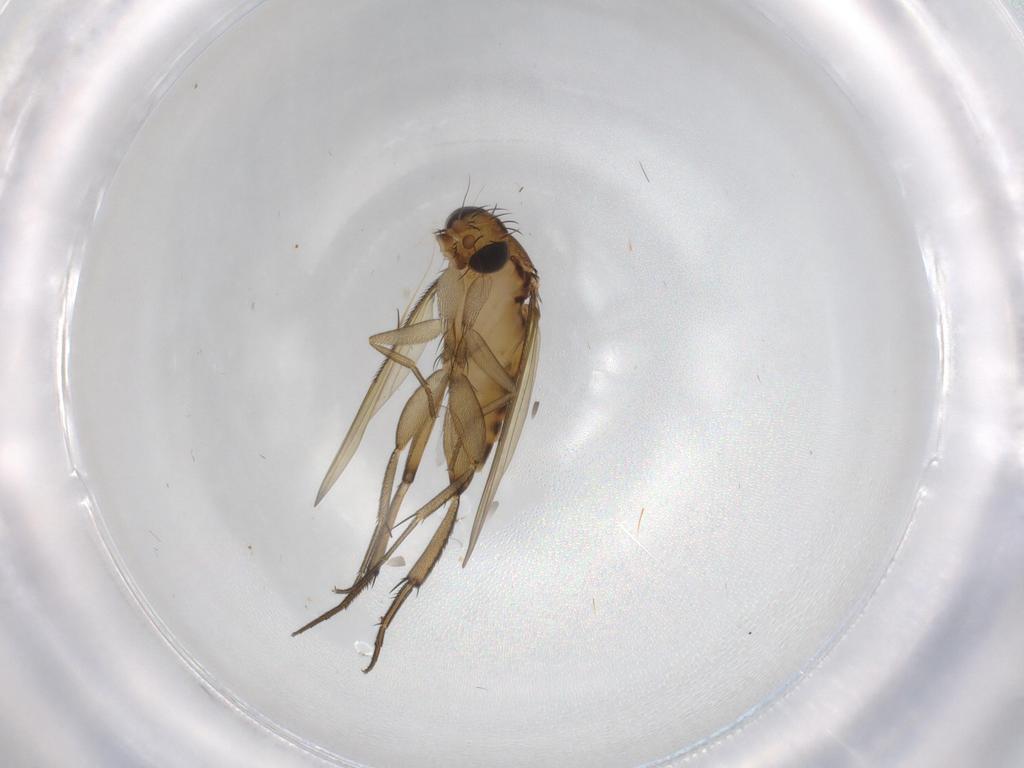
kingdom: Animalia
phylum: Arthropoda
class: Insecta
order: Diptera
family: Phoridae
